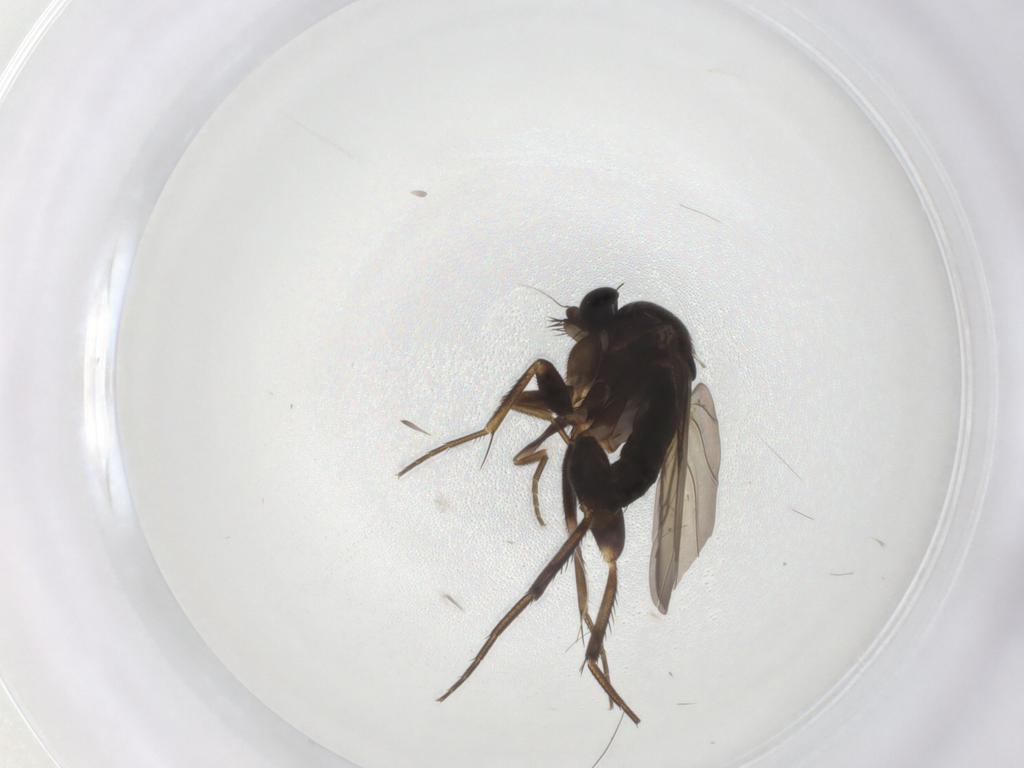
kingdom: Animalia
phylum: Arthropoda
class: Insecta
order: Diptera
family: Phoridae
